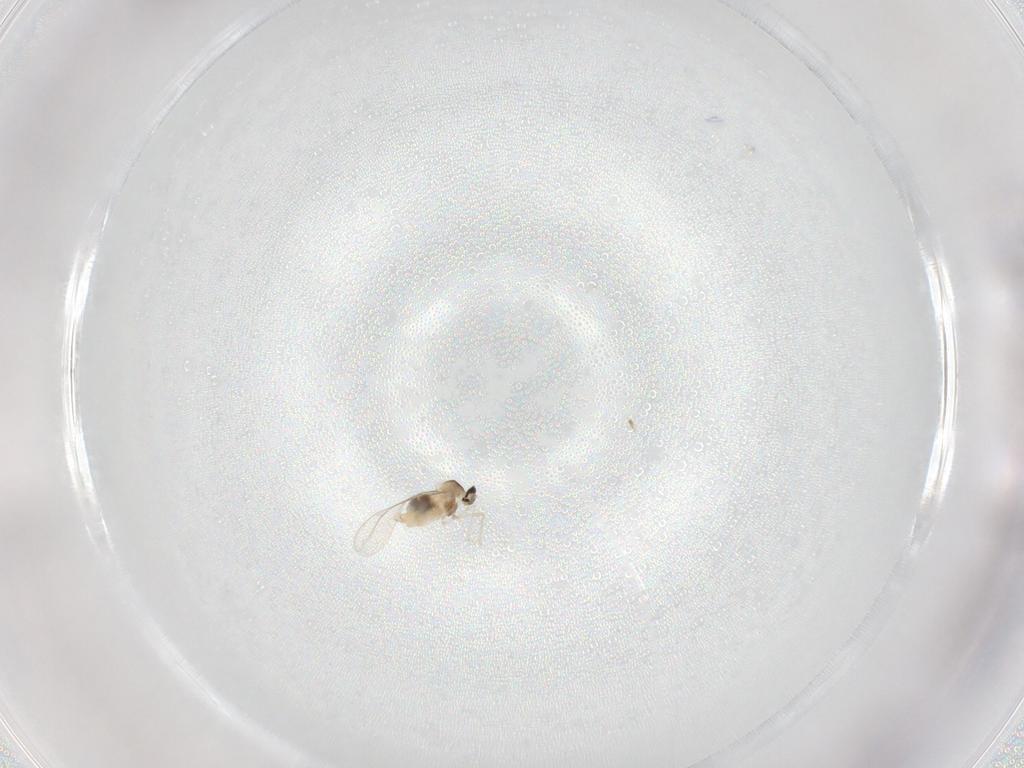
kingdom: Animalia
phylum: Arthropoda
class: Insecta
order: Diptera
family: Cecidomyiidae
